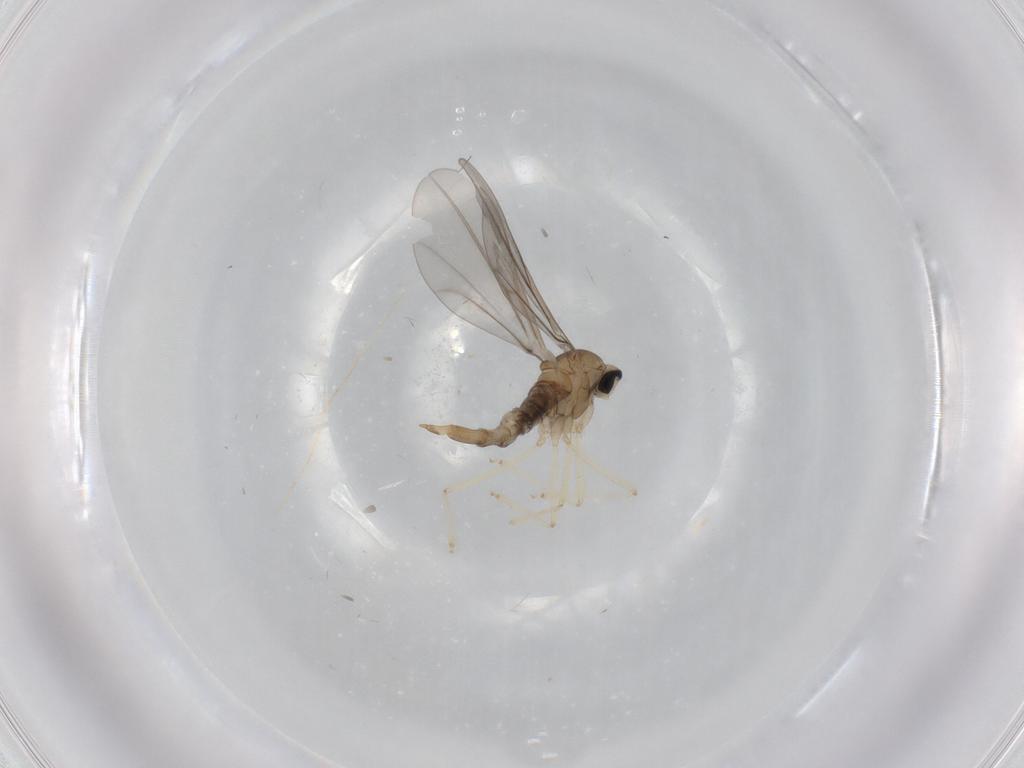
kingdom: Animalia
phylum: Arthropoda
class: Insecta
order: Diptera
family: Cecidomyiidae
